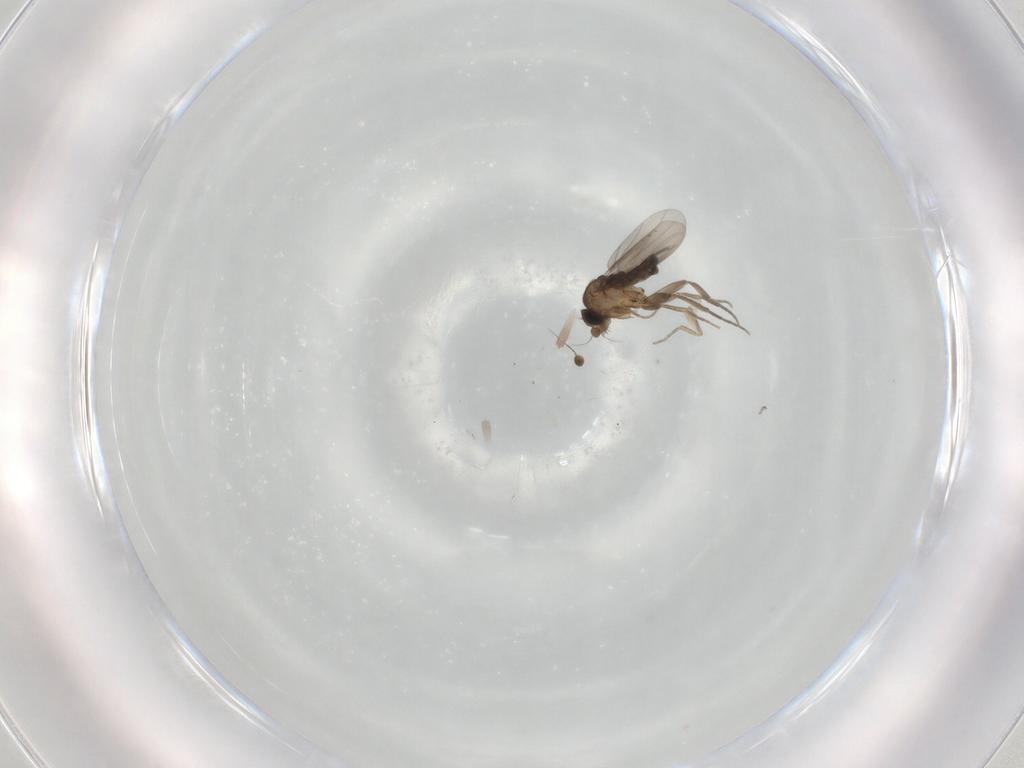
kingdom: Animalia
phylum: Arthropoda
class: Insecta
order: Diptera
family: Phoridae
